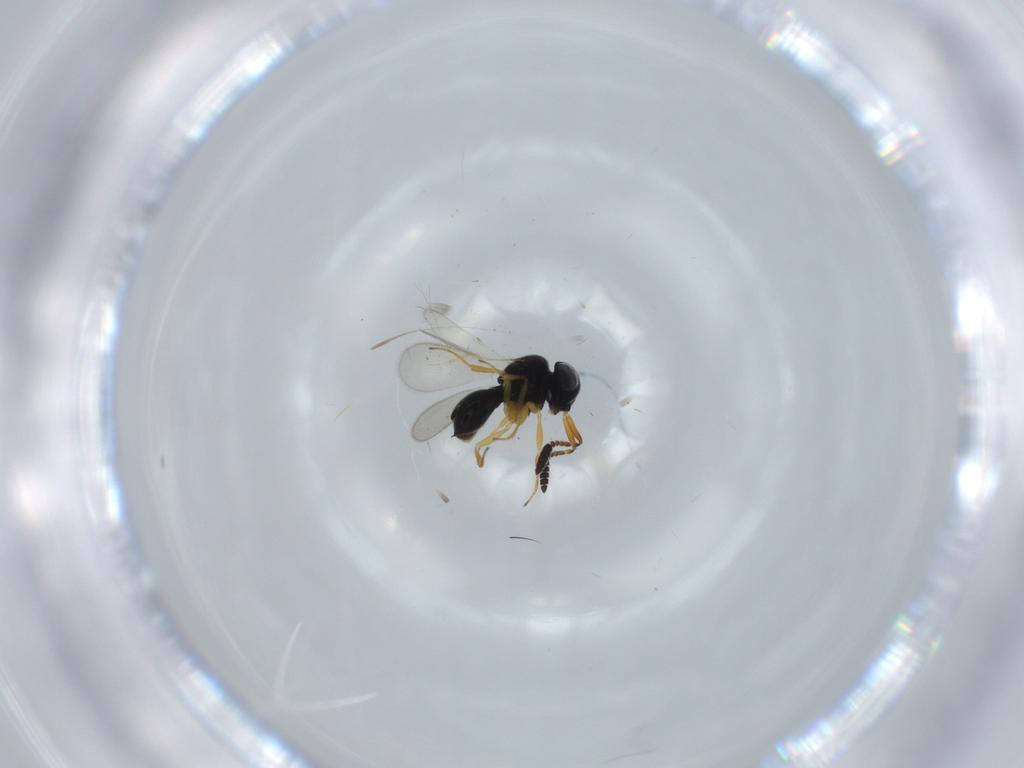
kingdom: Animalia
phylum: Arthropoda
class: Insecta
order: Hymenoptera
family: Scelionidae
